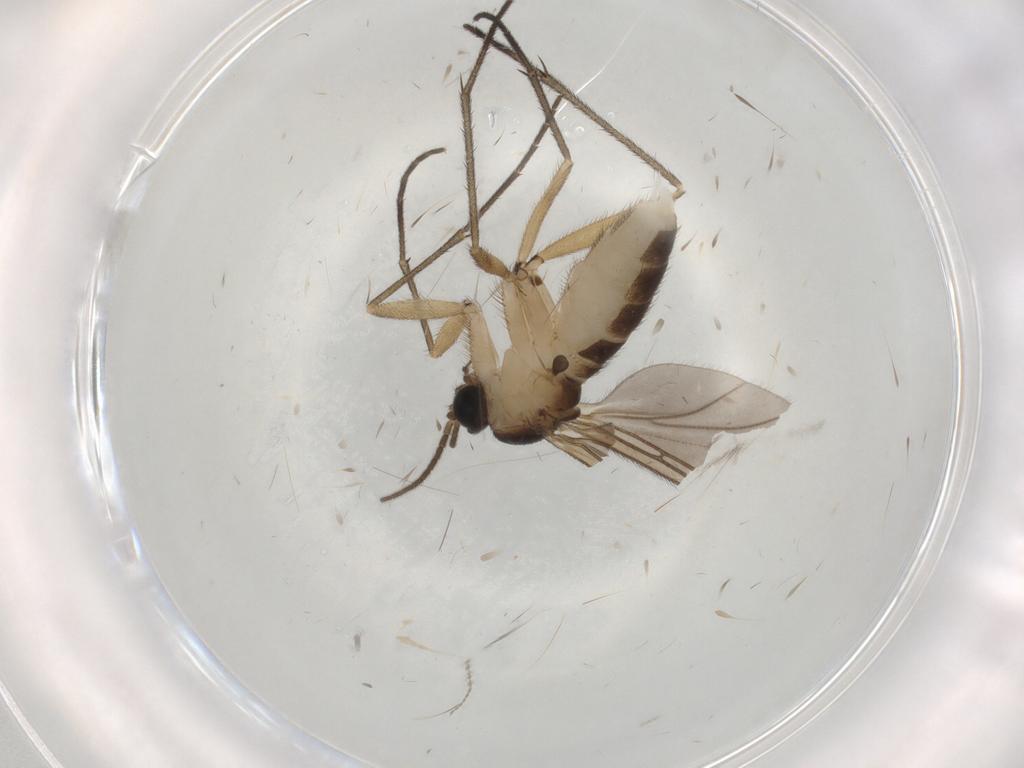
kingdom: Animalia
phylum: Arthropoda
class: Insecta
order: Diptera
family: Sciaridae
